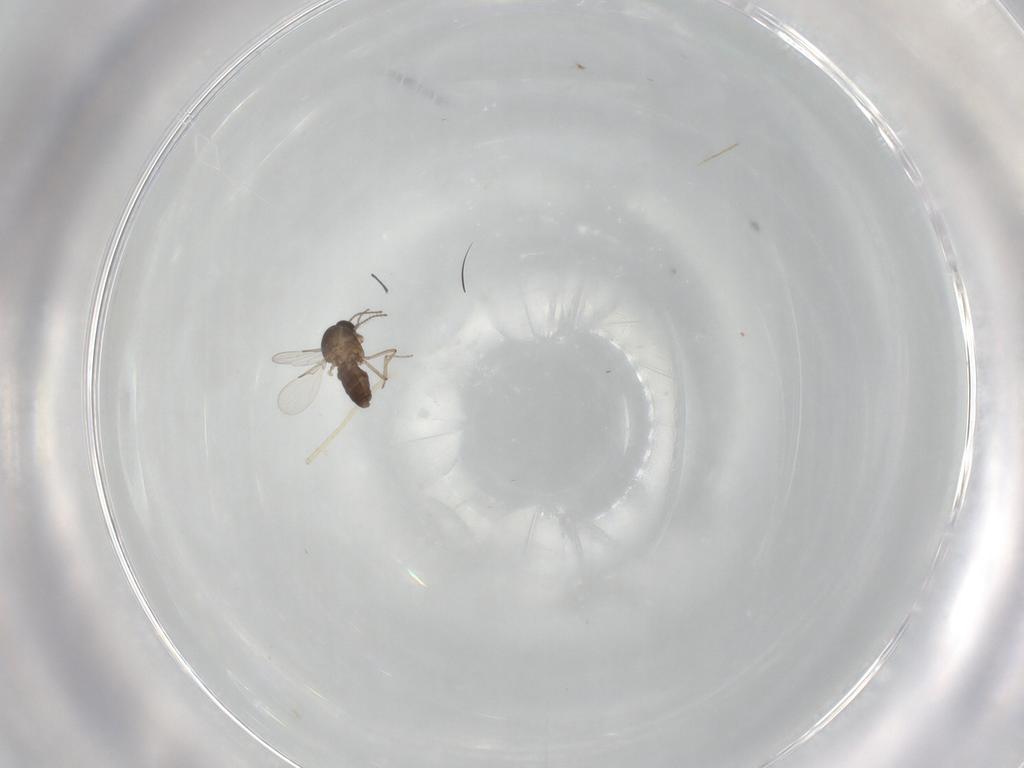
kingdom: Animalia
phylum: Arthropoda
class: Insecta
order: Diptera
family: Ceratopogonidae
